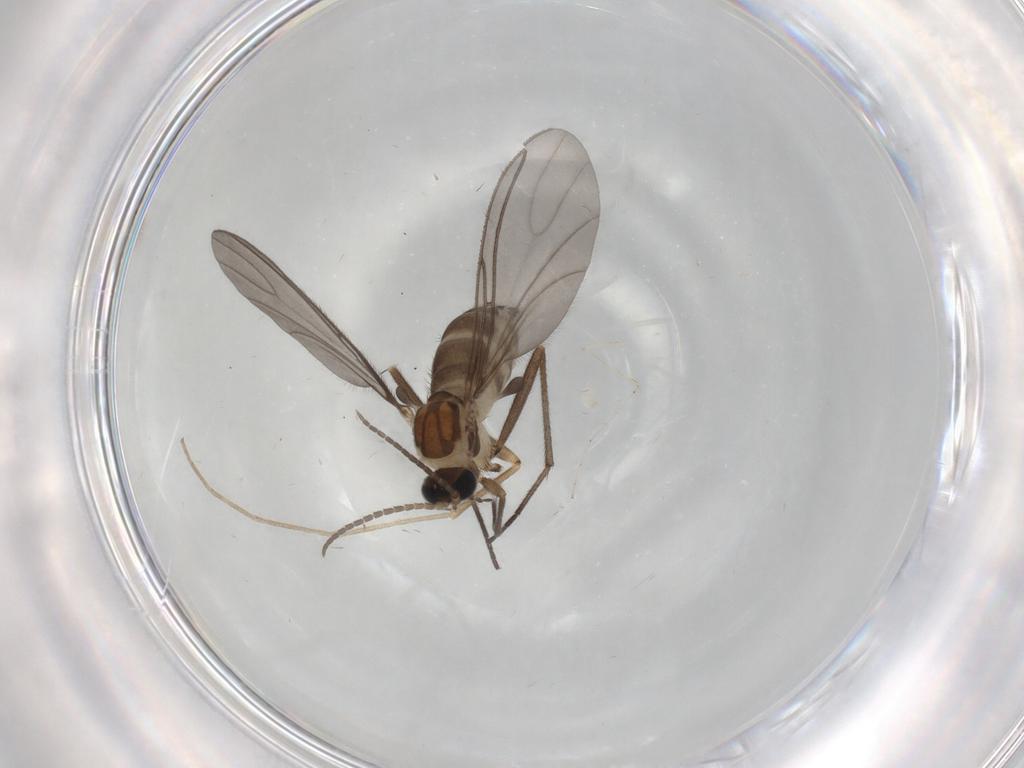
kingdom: Animalia
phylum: Arthropoda
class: Insecta
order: Diptera
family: Sciaridae
